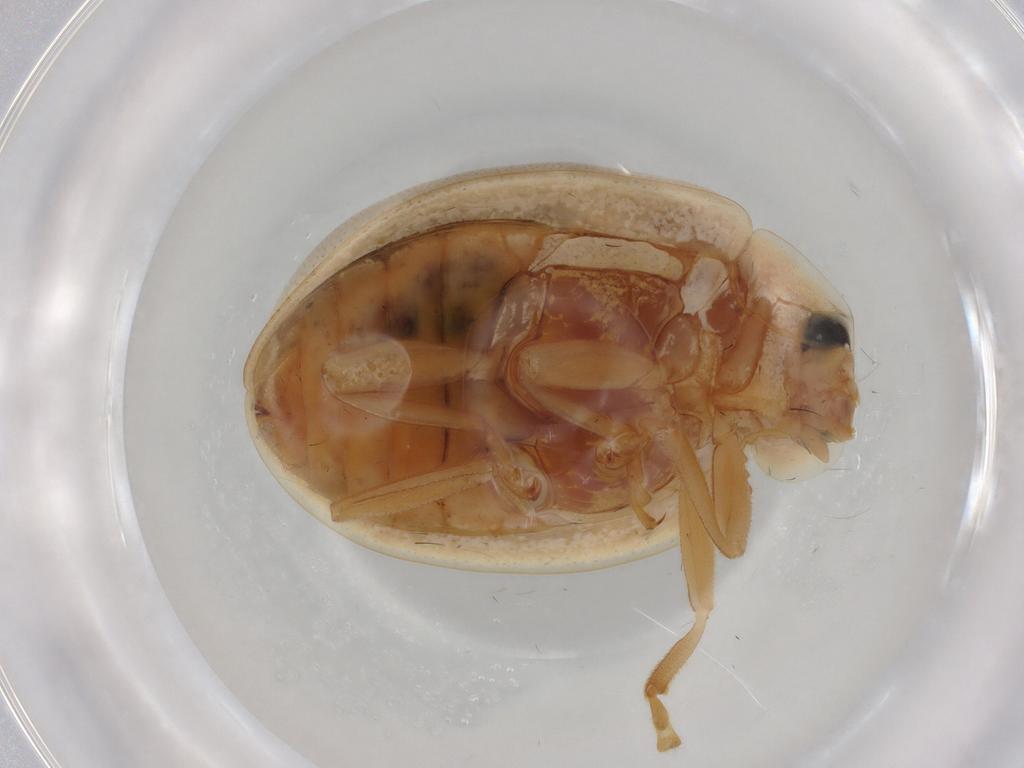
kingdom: Animalia
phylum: Arthropoda
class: Insecta
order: Coleoptera
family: Coccinellidae
